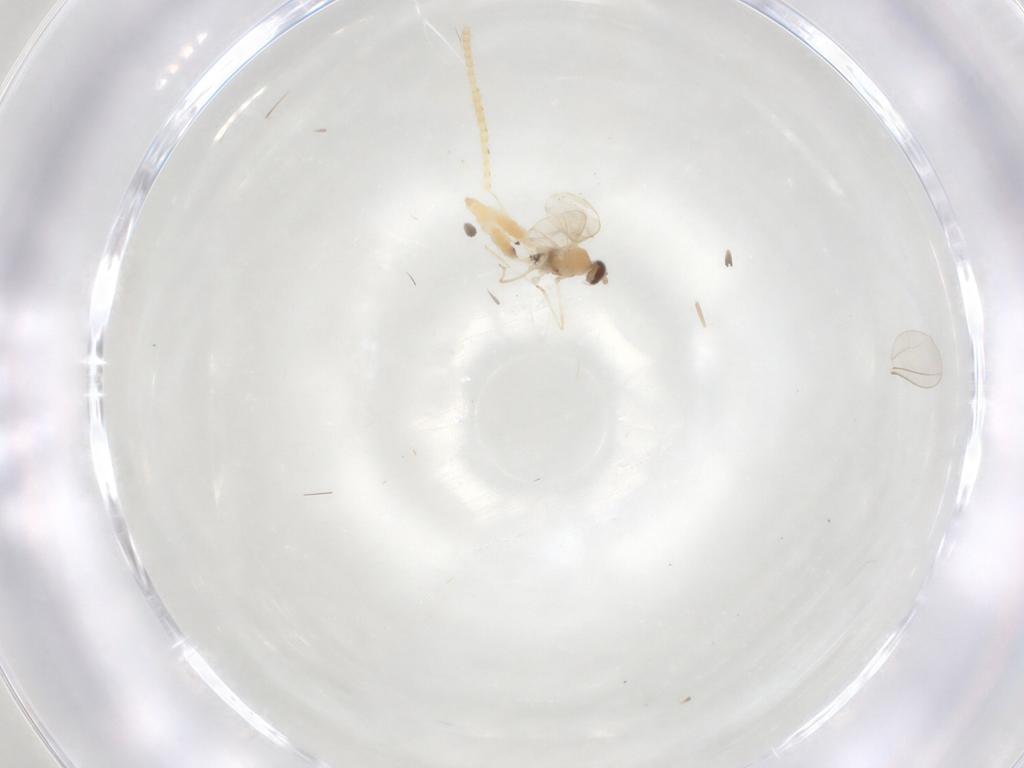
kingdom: Animalia
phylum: Arthropoda
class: Insecta
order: Diptera
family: Cecidomyiidae
